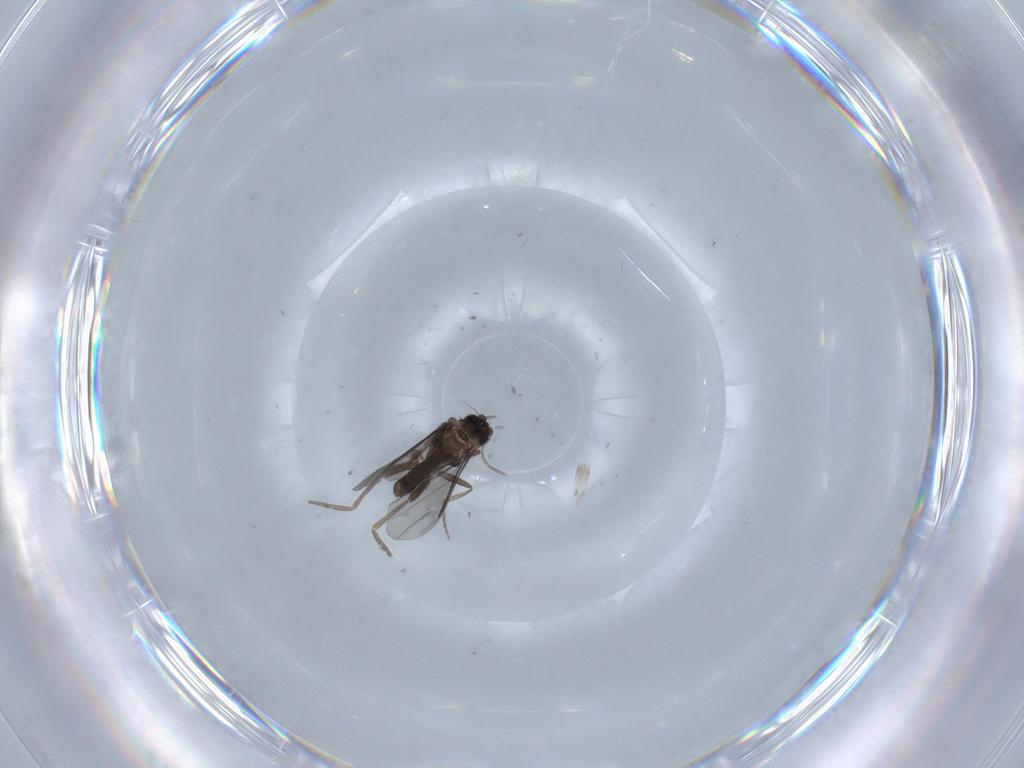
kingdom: Animalia
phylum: Arthropoda
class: Insecta
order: Diptera
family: Chironomidae
